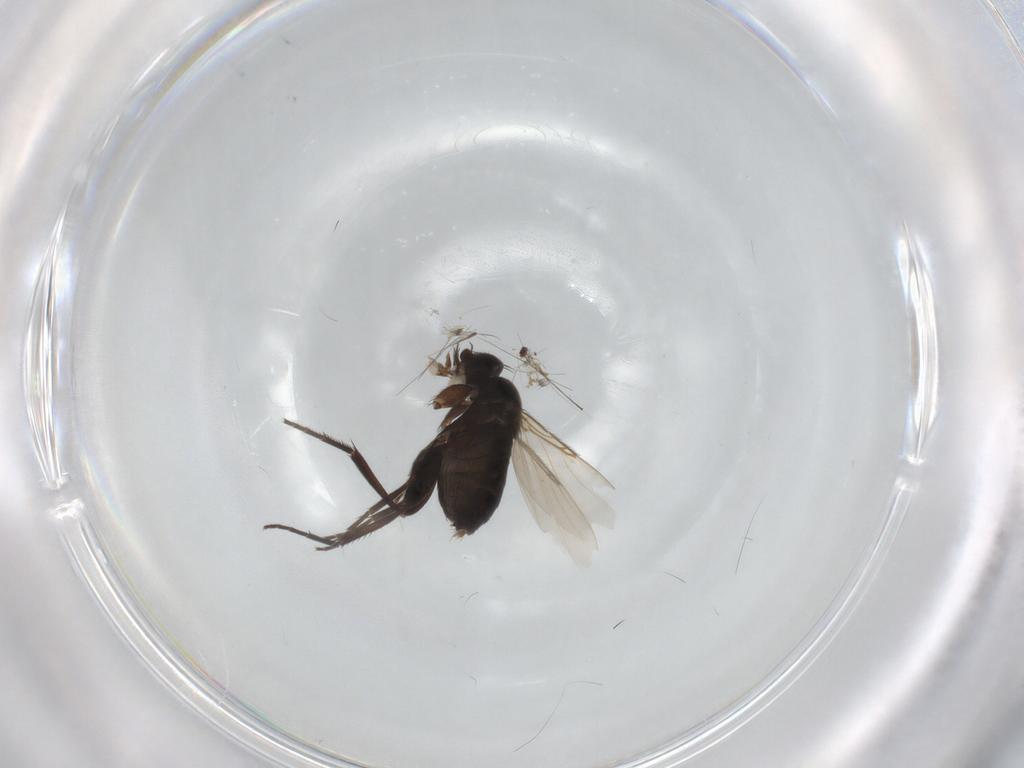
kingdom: Animalia
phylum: Arthropoda
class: Insecta
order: Diptera
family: Chironomidae
